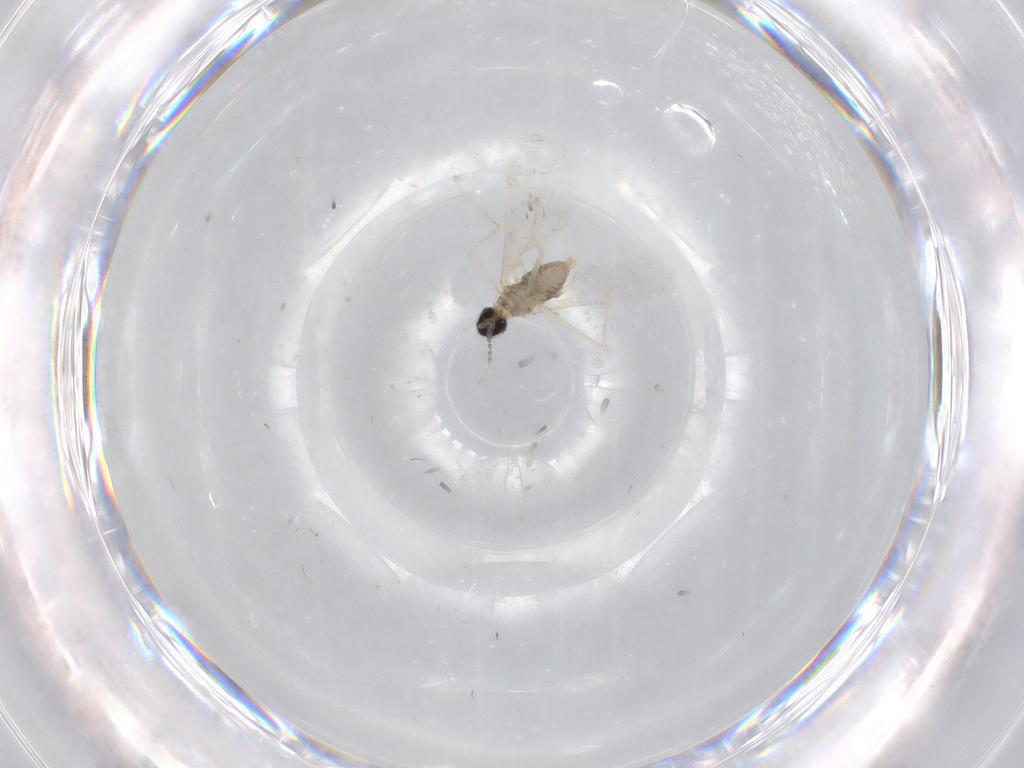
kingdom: Animalia
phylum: Arthropoda
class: Insecta
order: Diptera
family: Cecidomyiidae
